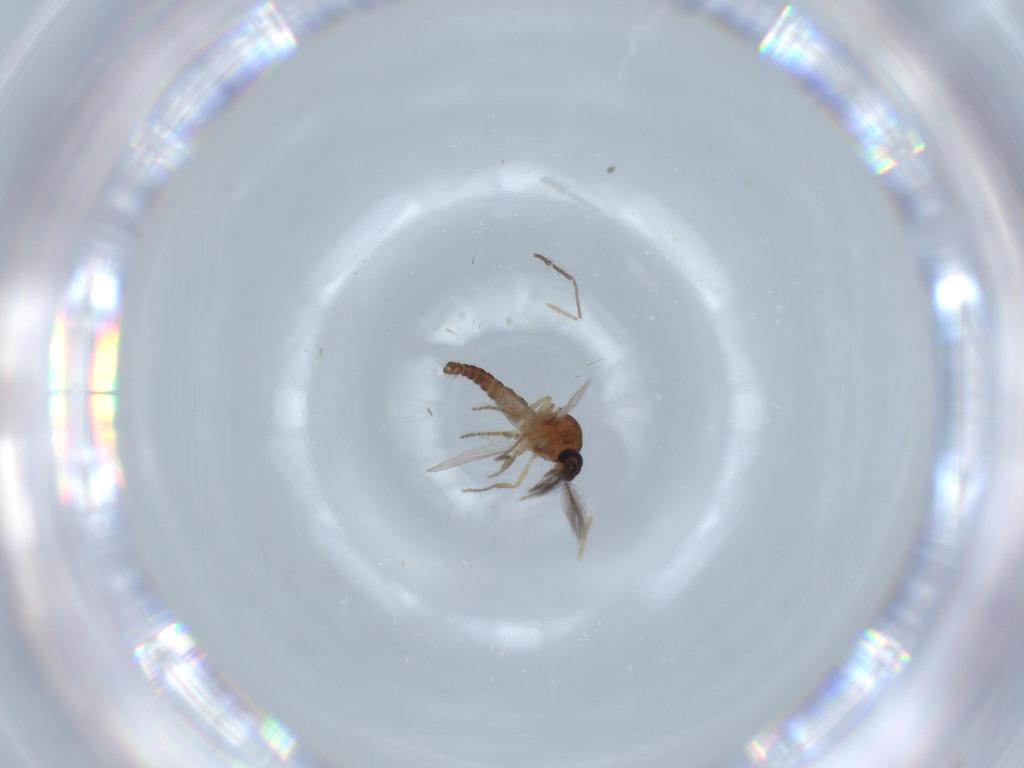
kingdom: Animalia
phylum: Arthropoda
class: Insecta
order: Diptera
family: Ceratopogonidae
